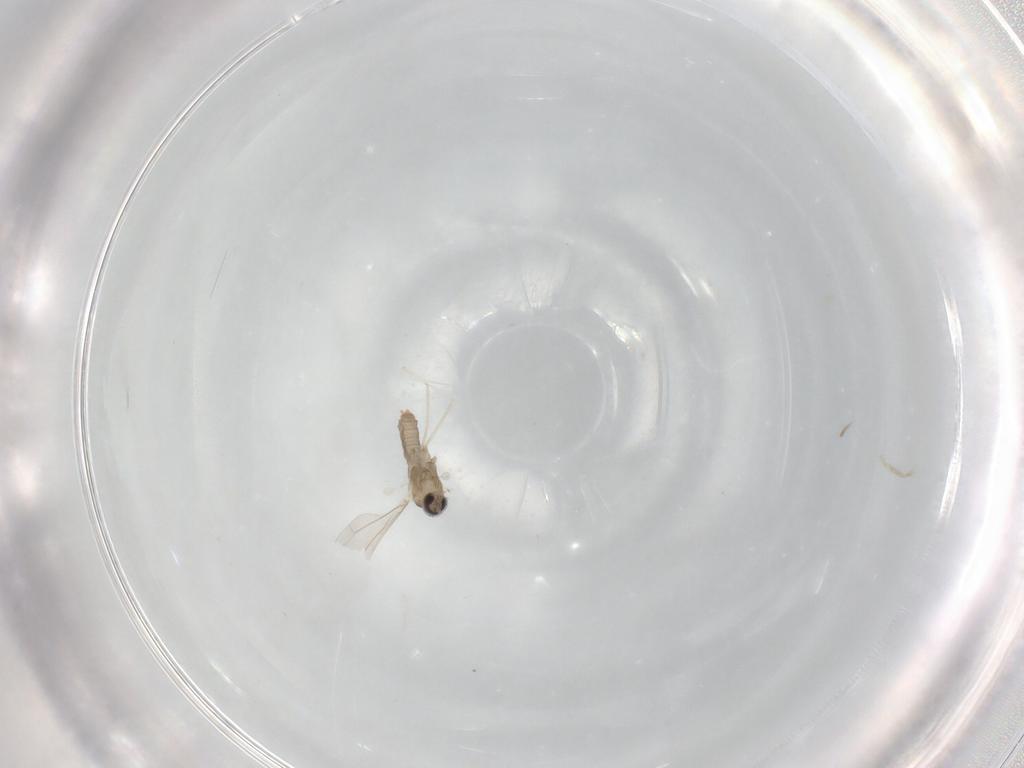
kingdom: Animalia
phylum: Arthropoda
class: Insecta
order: Diptera
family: Cecidomyiidae
